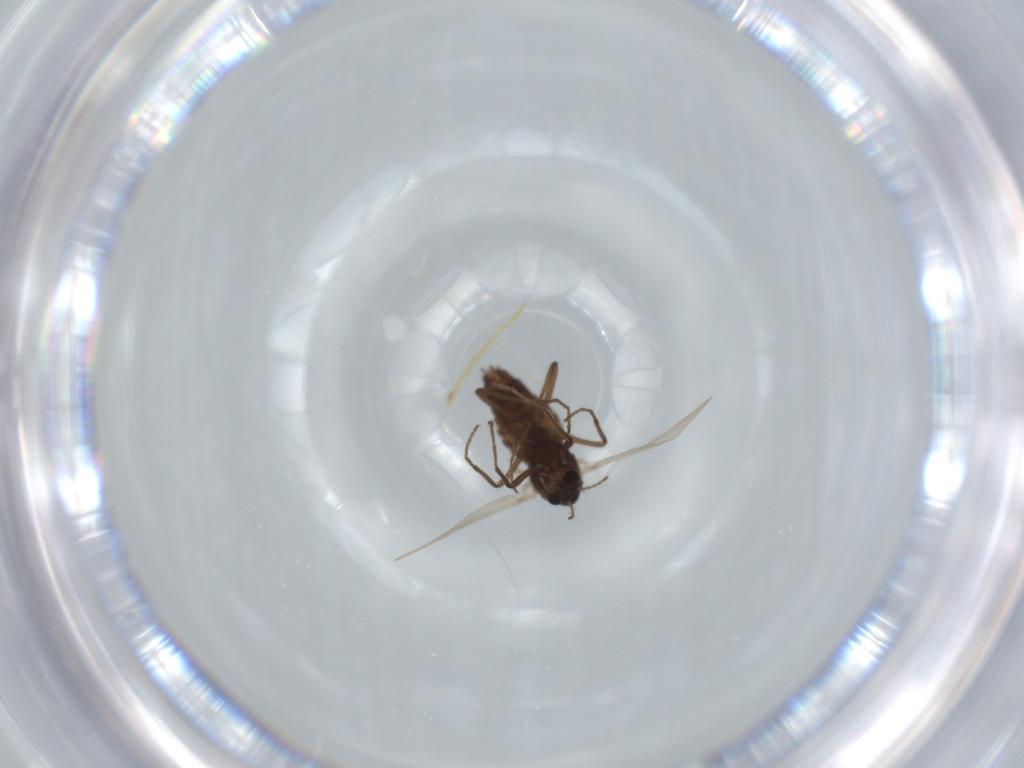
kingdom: Animalia
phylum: Arthropoda
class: Insecta
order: Diptera
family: Chironomidae
